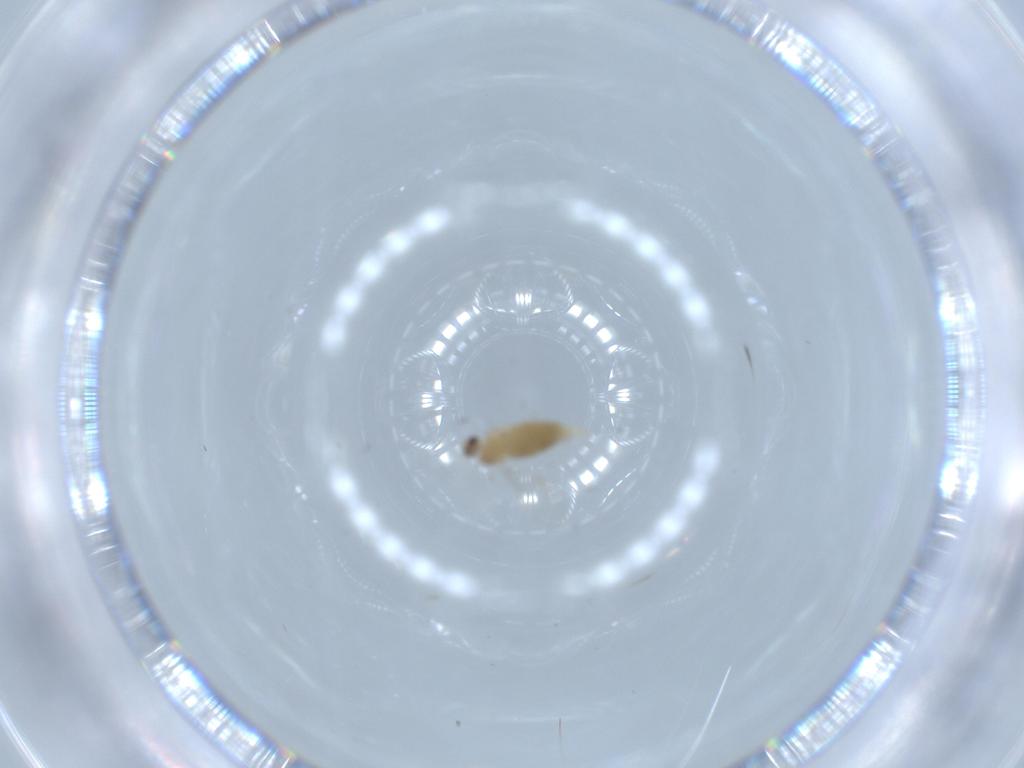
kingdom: Animalia
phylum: Arthropoda
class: Insecta
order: Diptera
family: Cecidomyiidae
